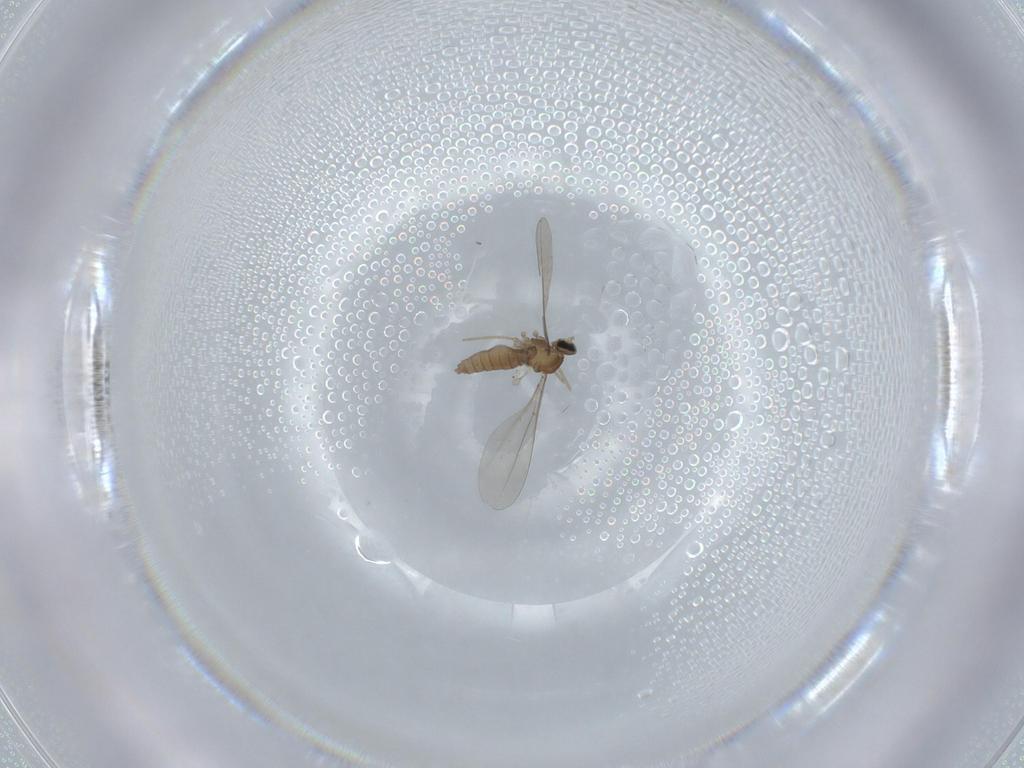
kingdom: Animalia
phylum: Arthropoda
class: Insecta
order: Diptera
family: Cecidomyiidae
